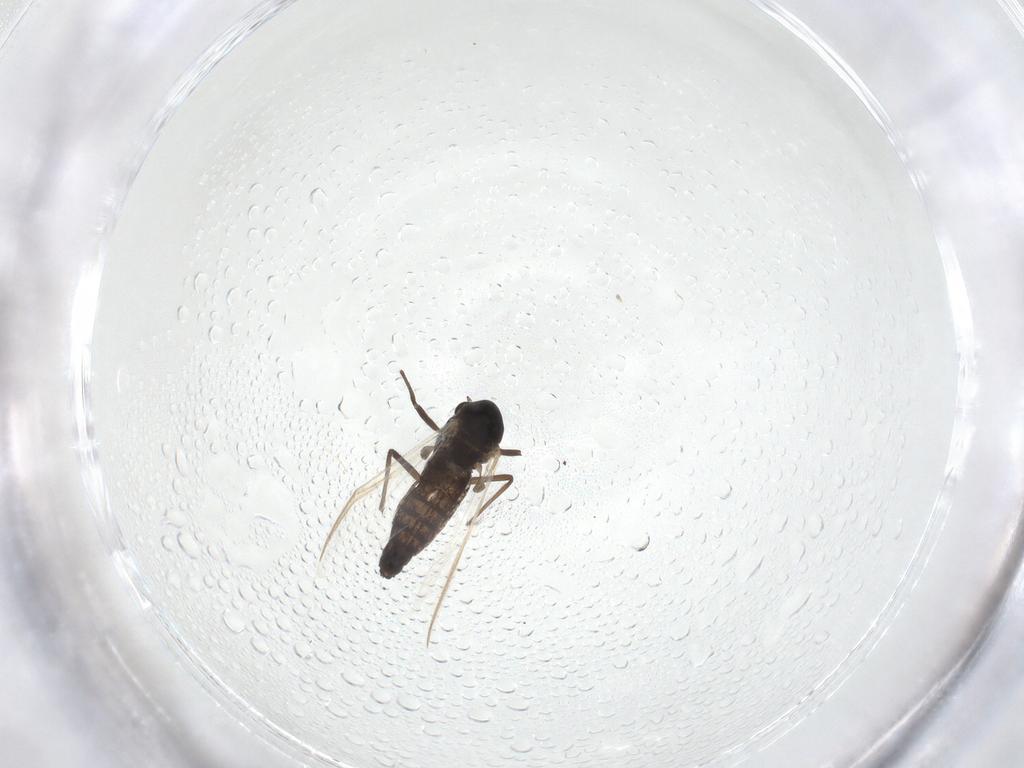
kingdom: Animalia
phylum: Arthropoda
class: Insecta
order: Diptera
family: Chironomidae
